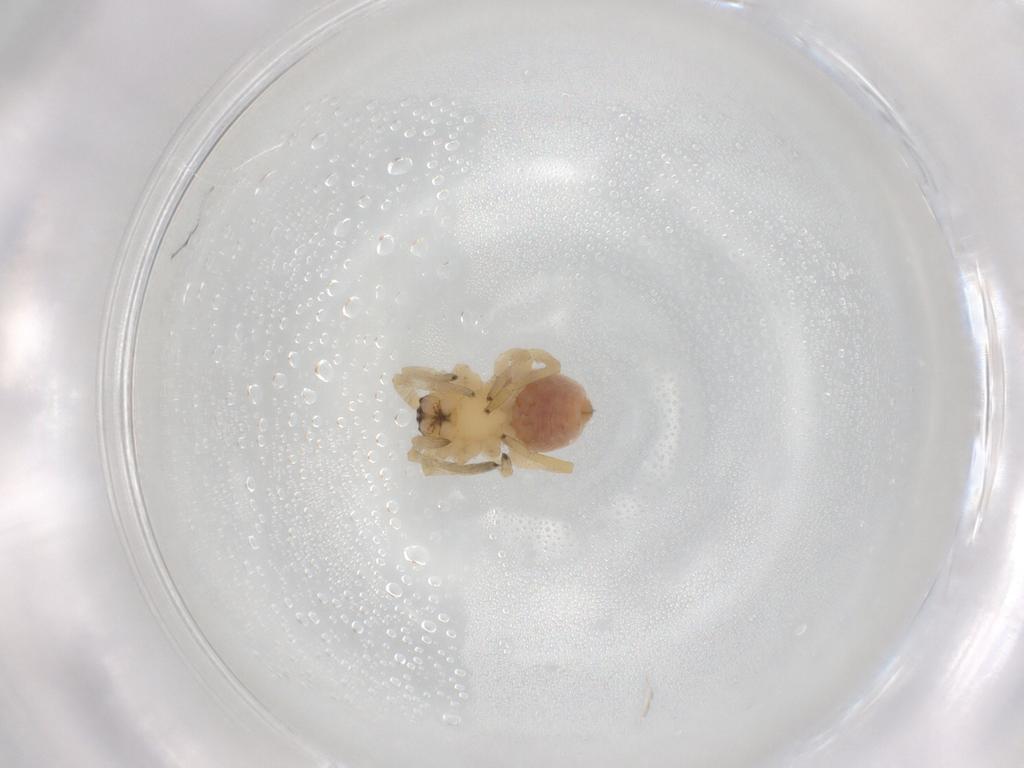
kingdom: Animalia
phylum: Arthropoda
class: Arachnida
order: Araneae
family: Cheiracanthiidae
